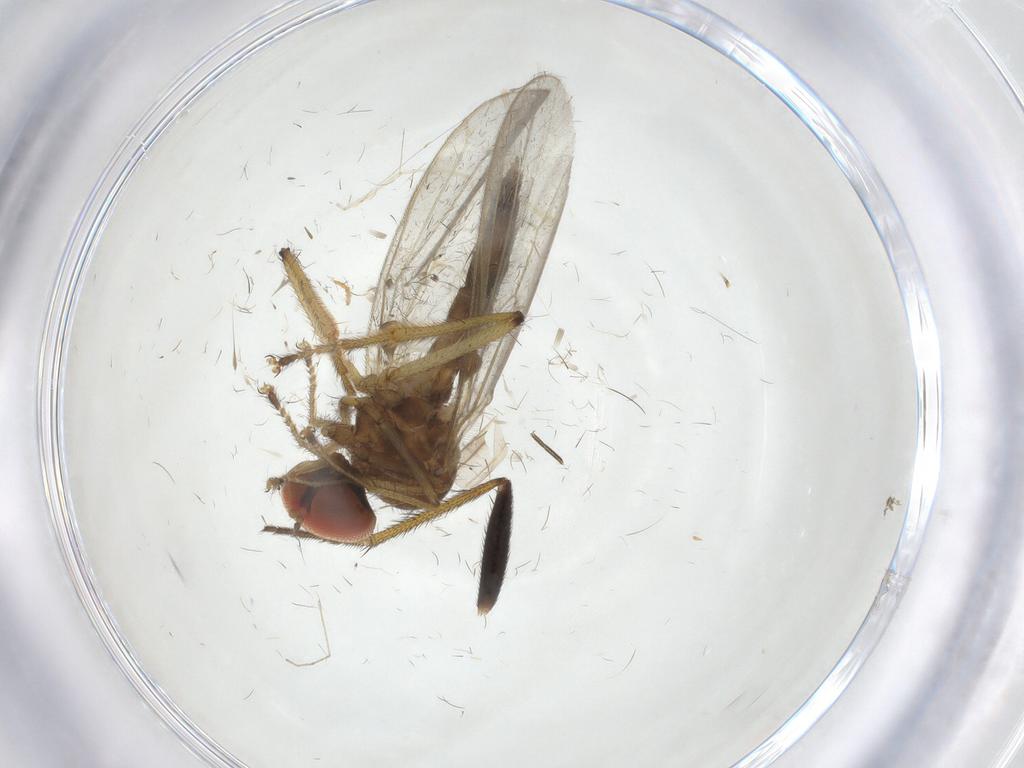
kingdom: Animalia
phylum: Arthropoda
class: Insecta
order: Diptera
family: Hybotidae
